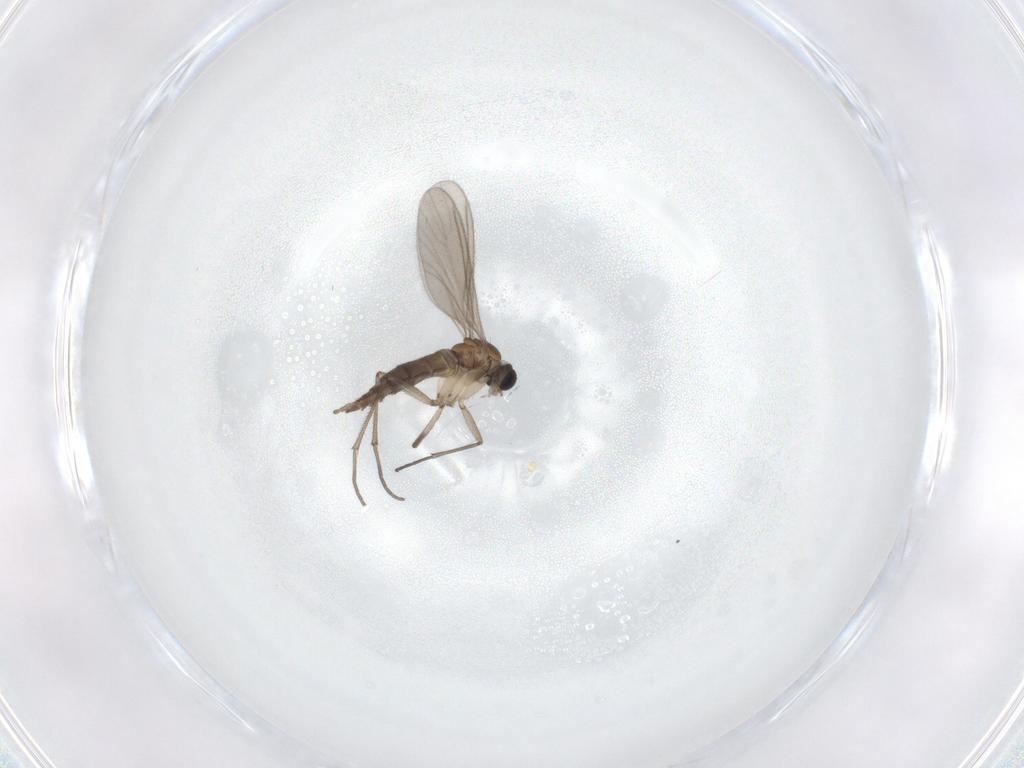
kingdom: Animalia
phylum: Arthropoda
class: Insecta
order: Diptera
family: Sciaridae
